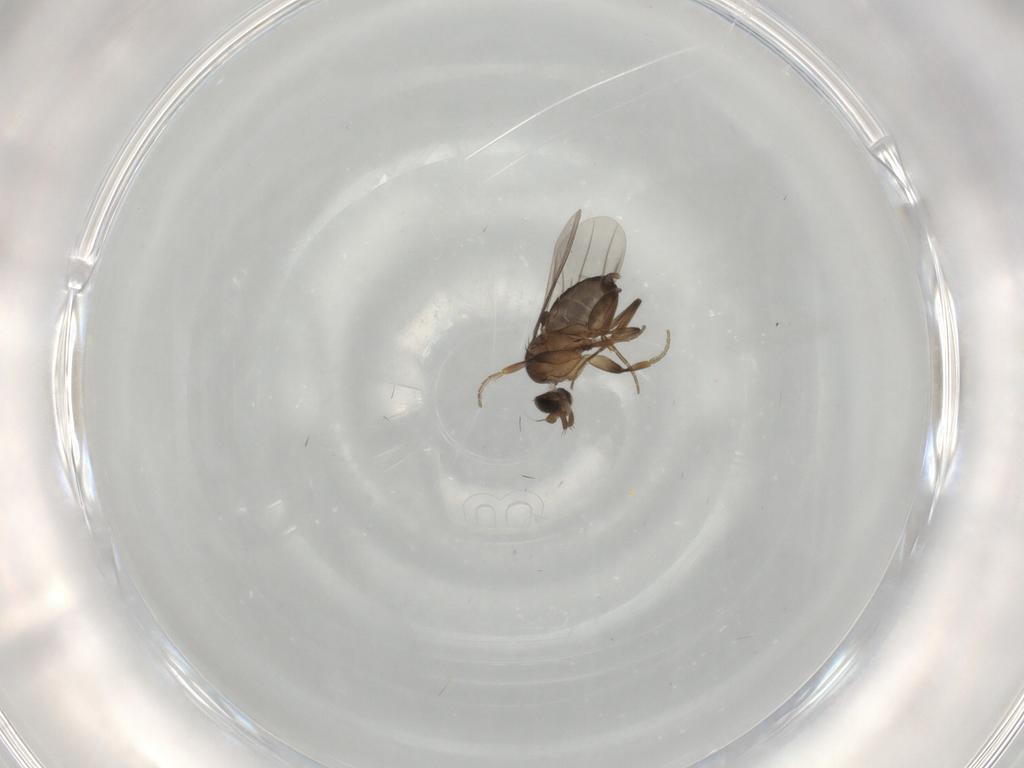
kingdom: Animalia
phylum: Arthropoda
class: Insecta
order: Diptera
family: Phoridae
